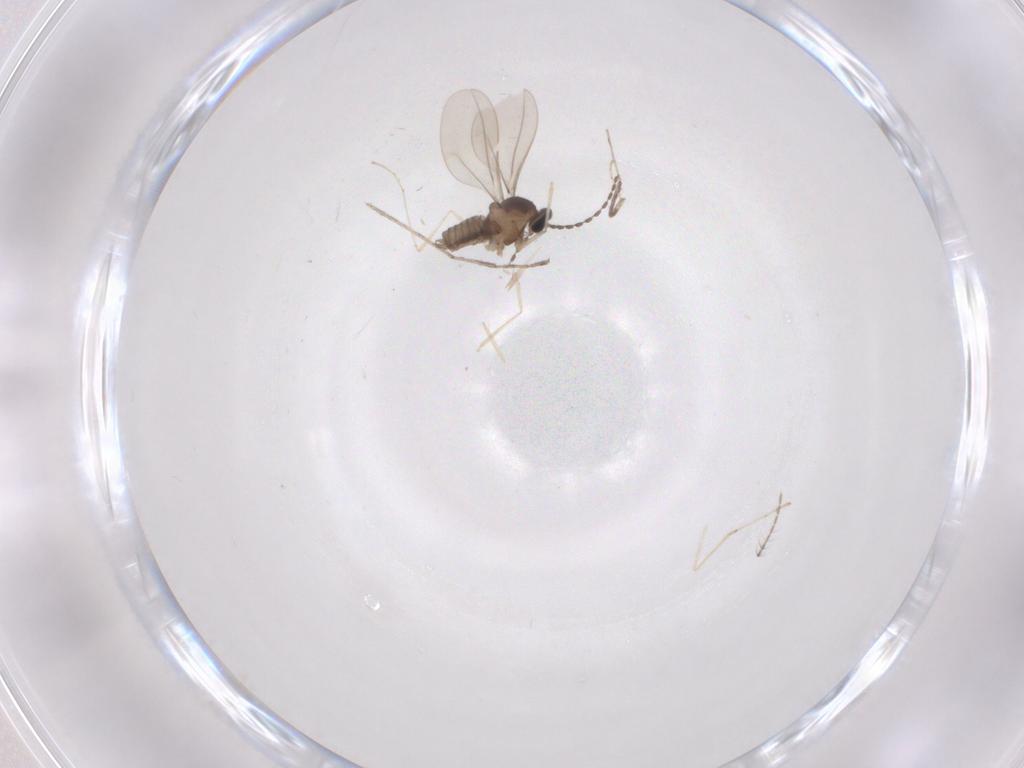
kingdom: Animalia
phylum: Arthropoda
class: Insecta
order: Diptera
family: Cecidomyiidae
